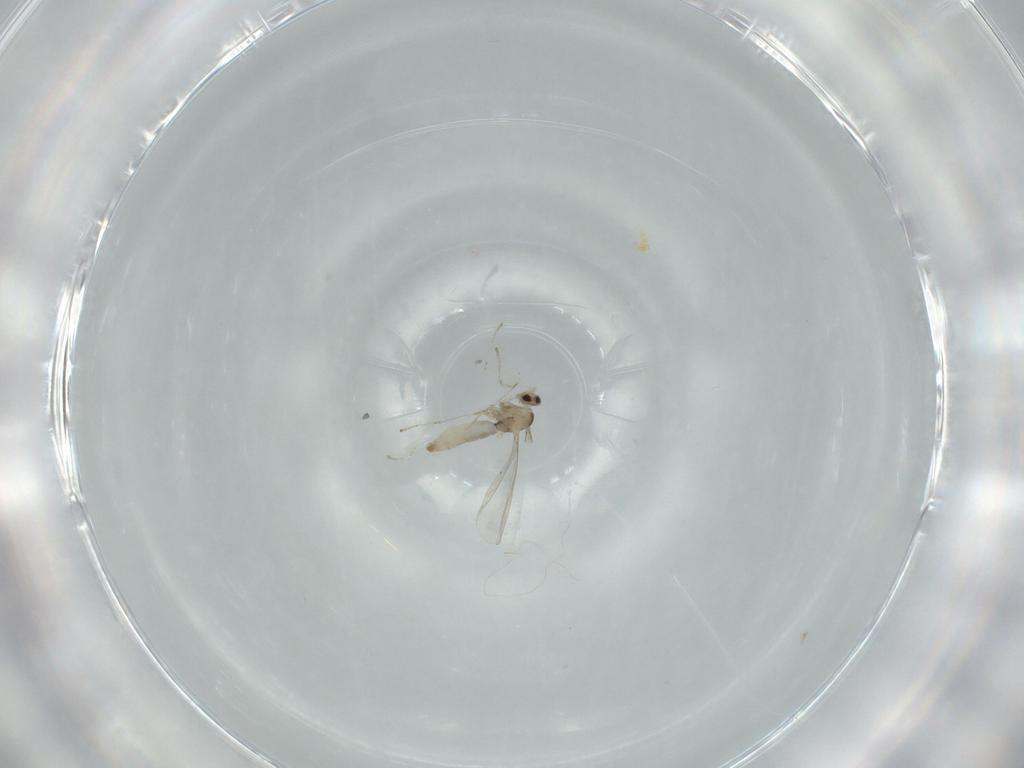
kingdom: Animalia
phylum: Arthropoda
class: Insecta
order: Diptera
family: Cecidomyiidae
